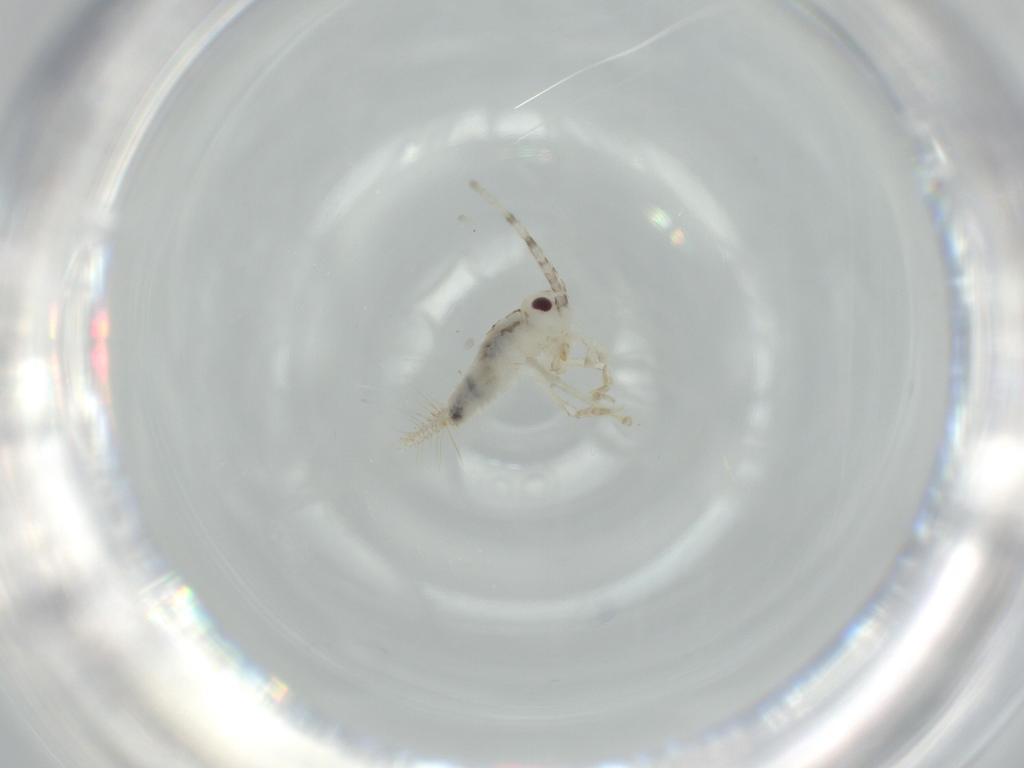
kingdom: Animalia
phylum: Arthropoda
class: Insecta
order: Orthoptera
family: Trigonidiidae
